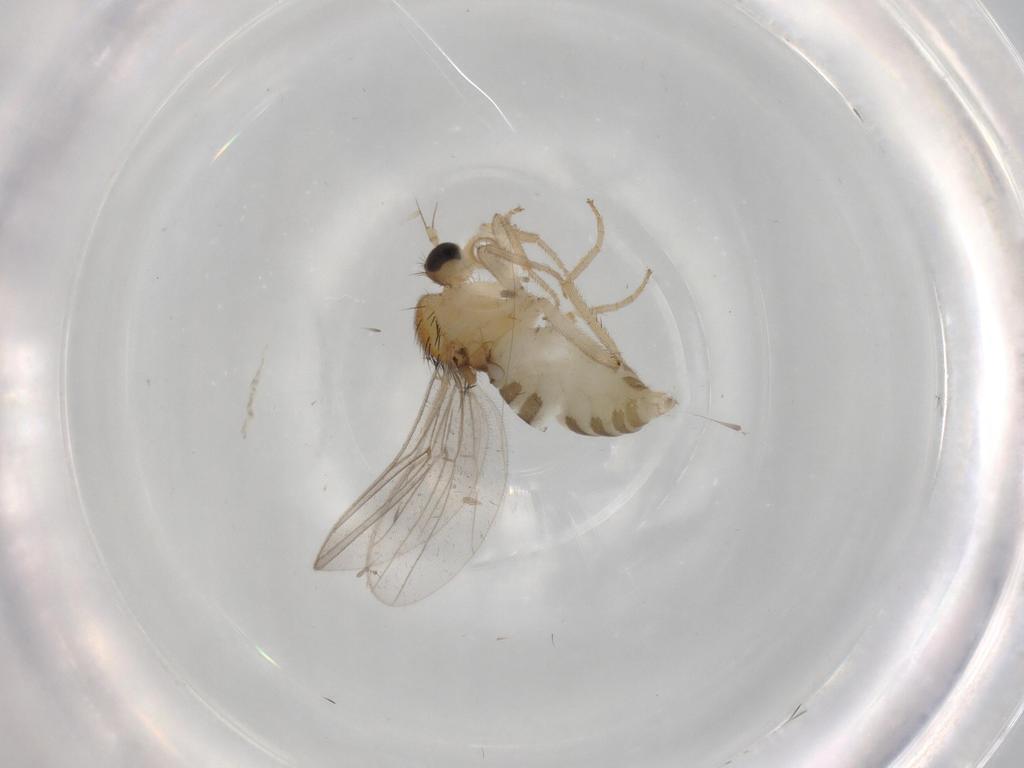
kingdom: Animalia
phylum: Arthropoda
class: Insecta
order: Diptera
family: Hybotidae
